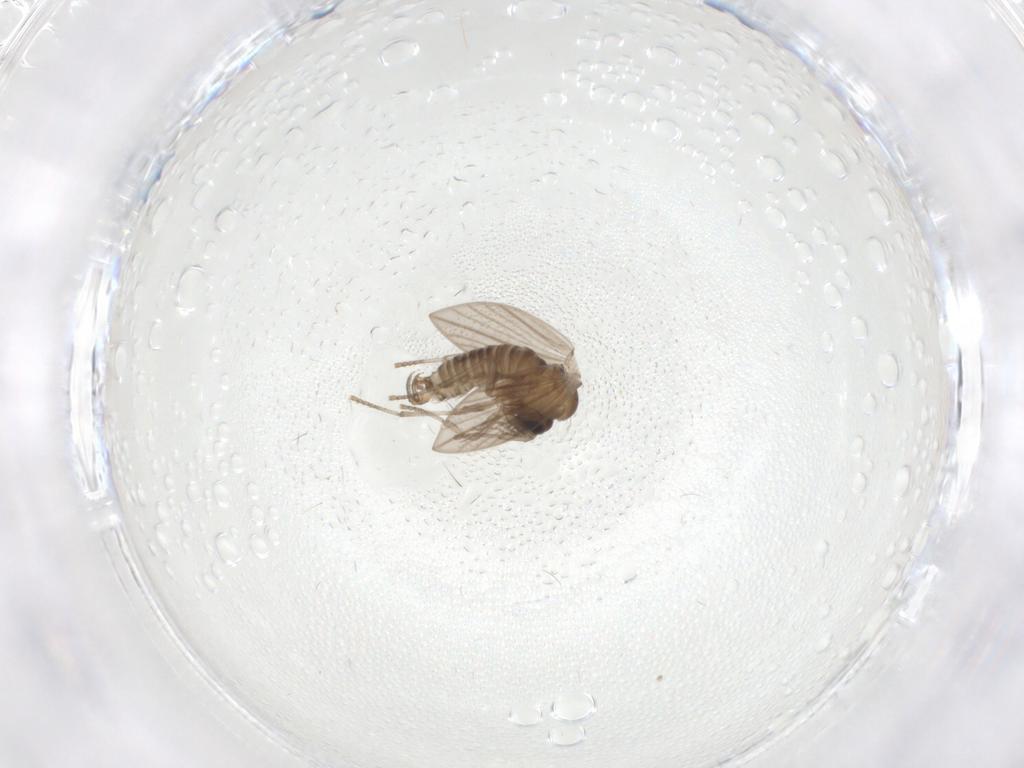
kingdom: Animalia
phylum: Arthropoda
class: Insecta
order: Diptera
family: Psychodidae
